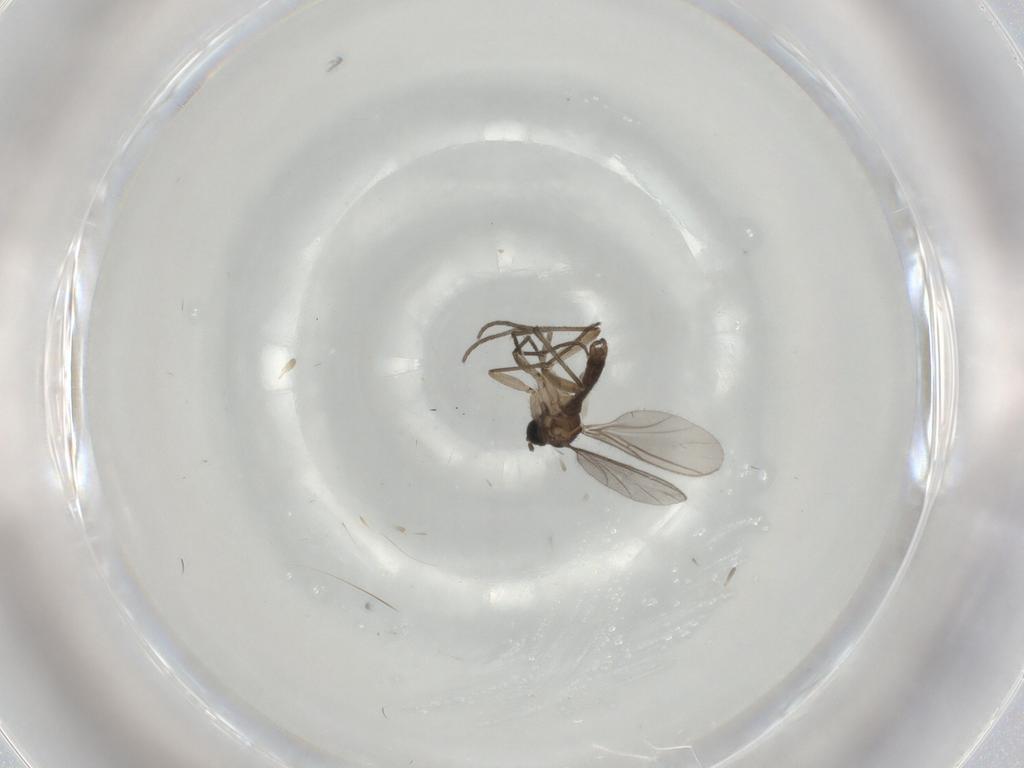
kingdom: Animalia
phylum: Arthropoda
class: Insecta
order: Diptera
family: Sciaridae
